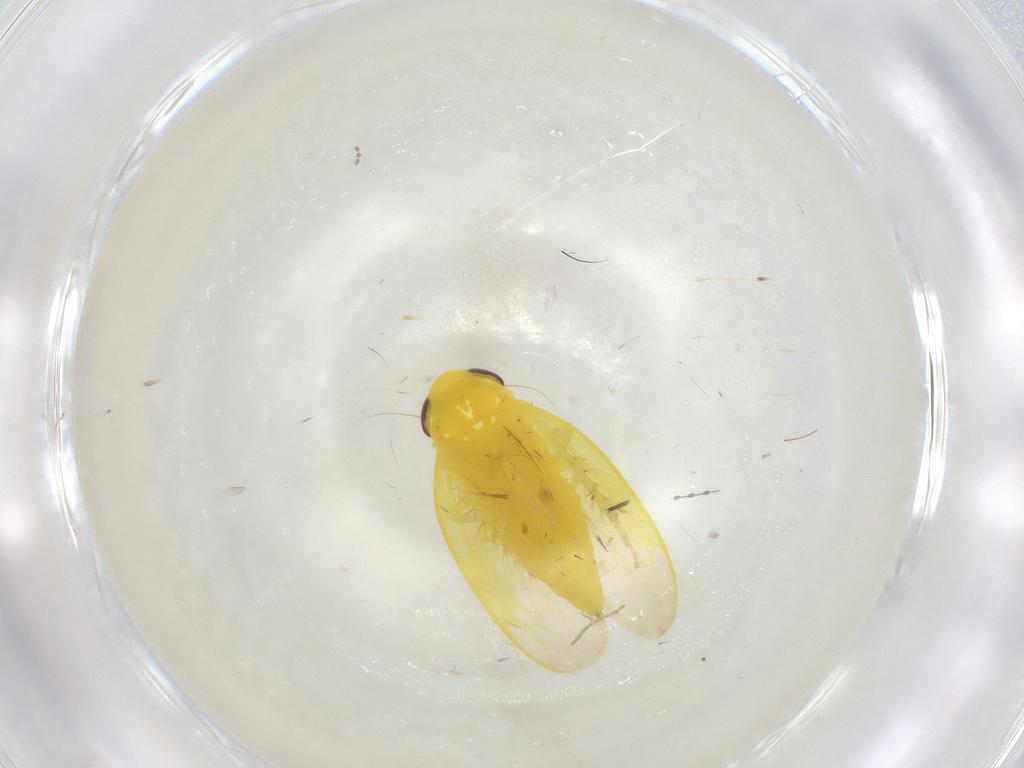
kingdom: Animalia
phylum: Arthropoda
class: Insecta
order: Hemiptera
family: Cicadellidae
